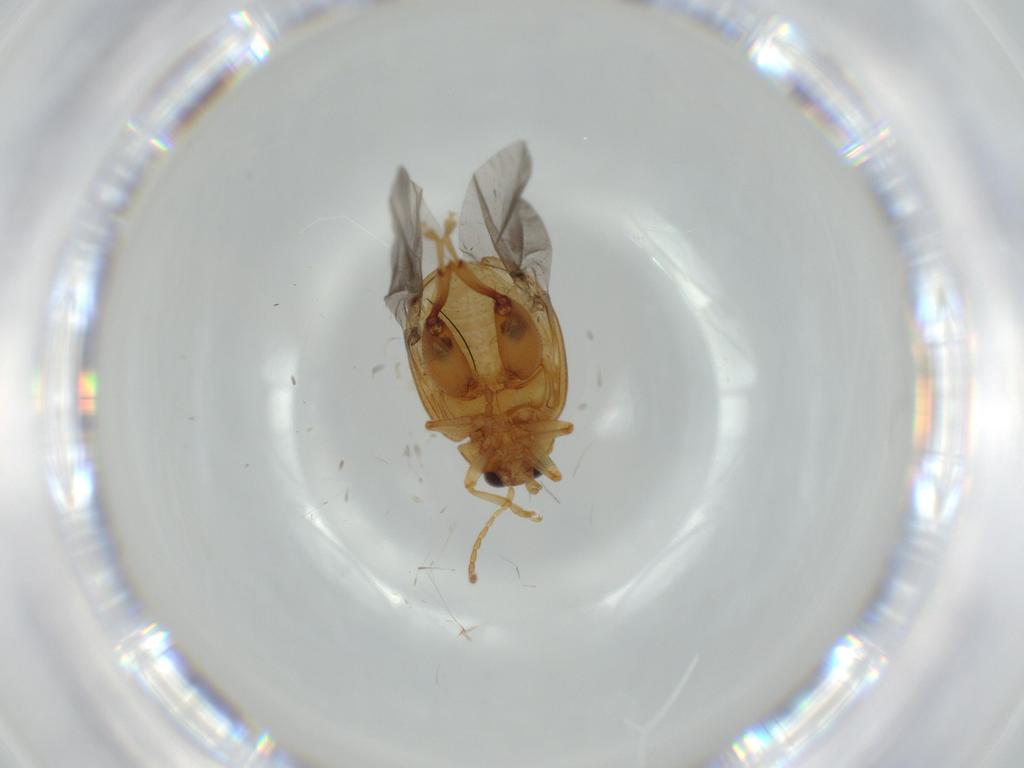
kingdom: Animalia
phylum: Arthropoda
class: Insecta
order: Coleoptera
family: Chrysomelidae
